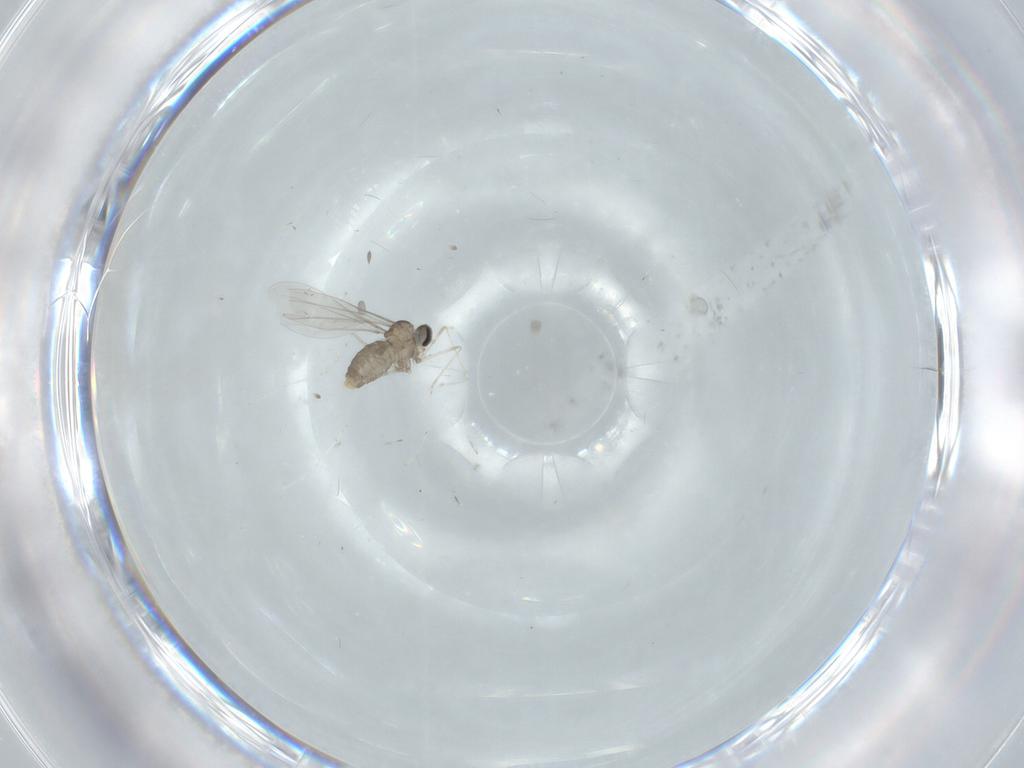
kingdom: Animalia
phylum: Arthropoda
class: Insecta
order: Diptera
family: Cecidomyiidae
